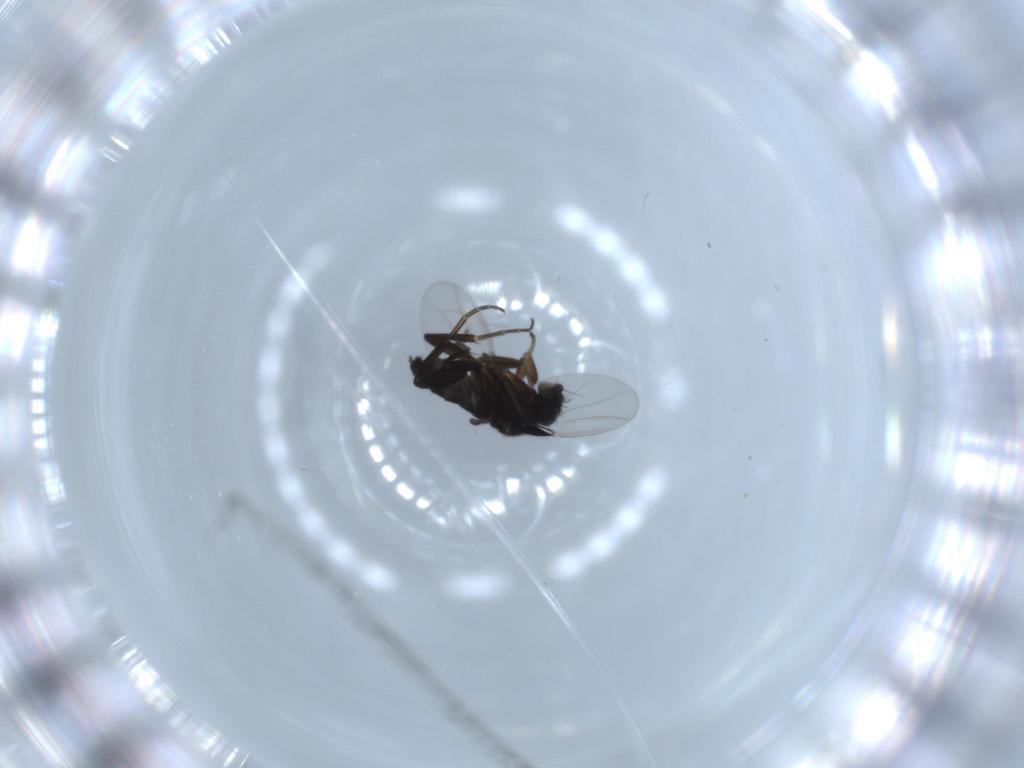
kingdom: Animalia
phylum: Arthropoda
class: Insecta
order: Diptera
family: Phoridae
